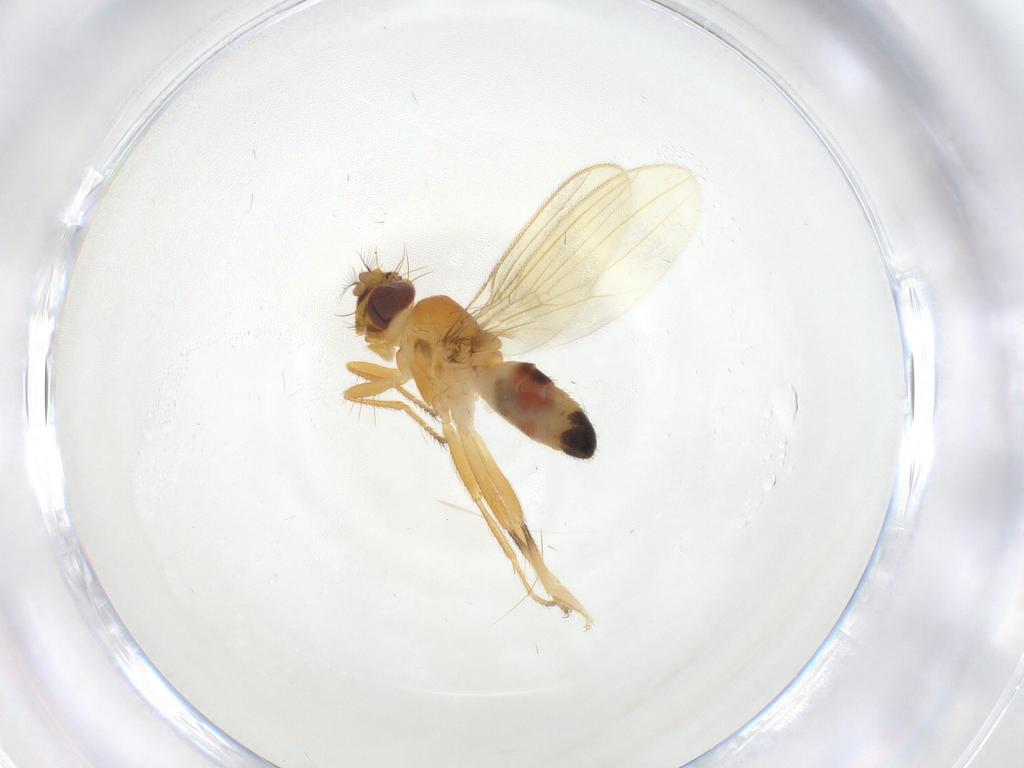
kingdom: Animalia
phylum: Arthropoda
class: Insecta
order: Diptera
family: Periscelididae
